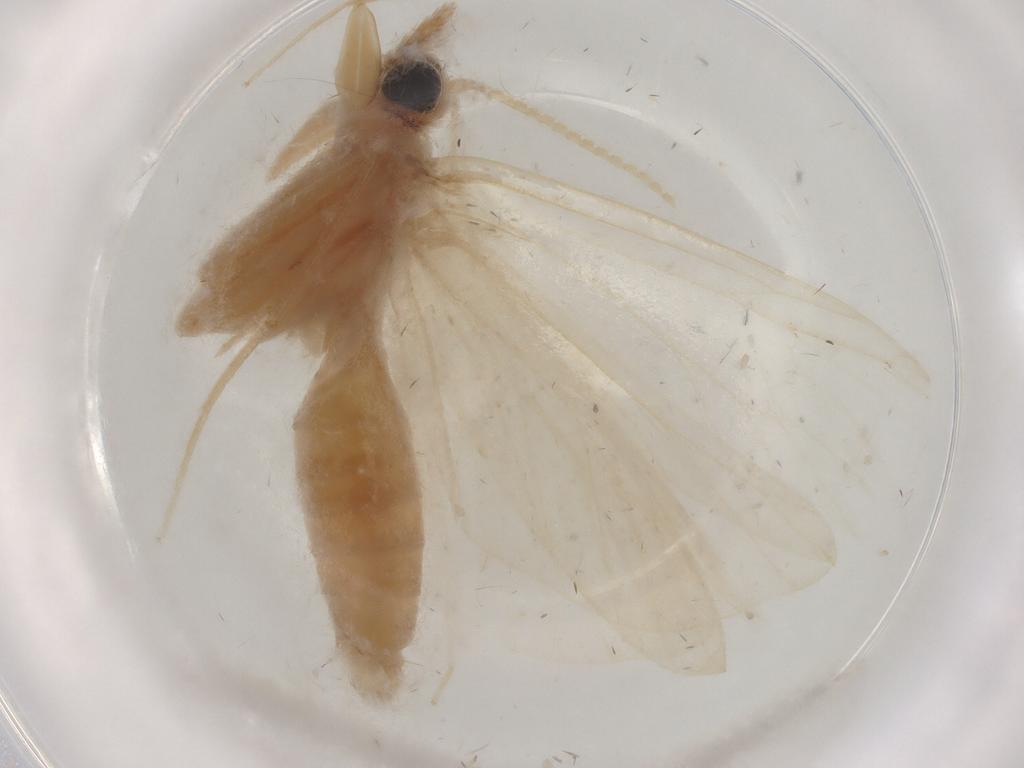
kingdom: Animalia
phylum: Arthropoda
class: Insecta
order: Lepidoptera
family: Crambidae
